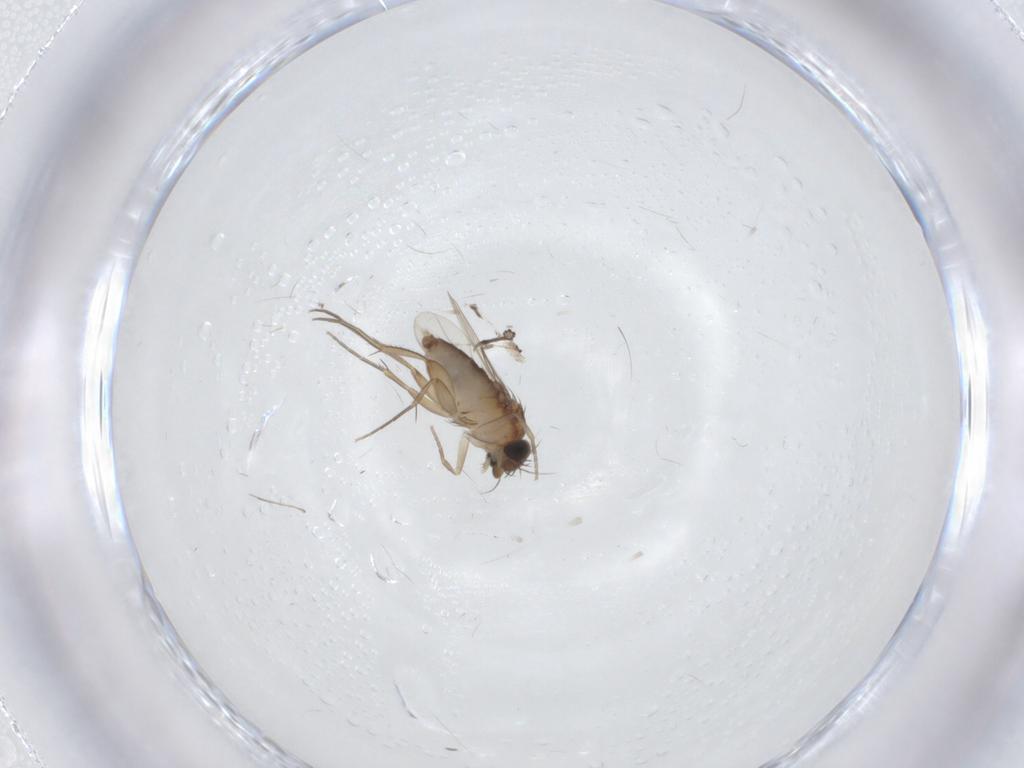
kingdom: Animalia
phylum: Arthropoda
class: Insecta
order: Diptera
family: Phoridae
